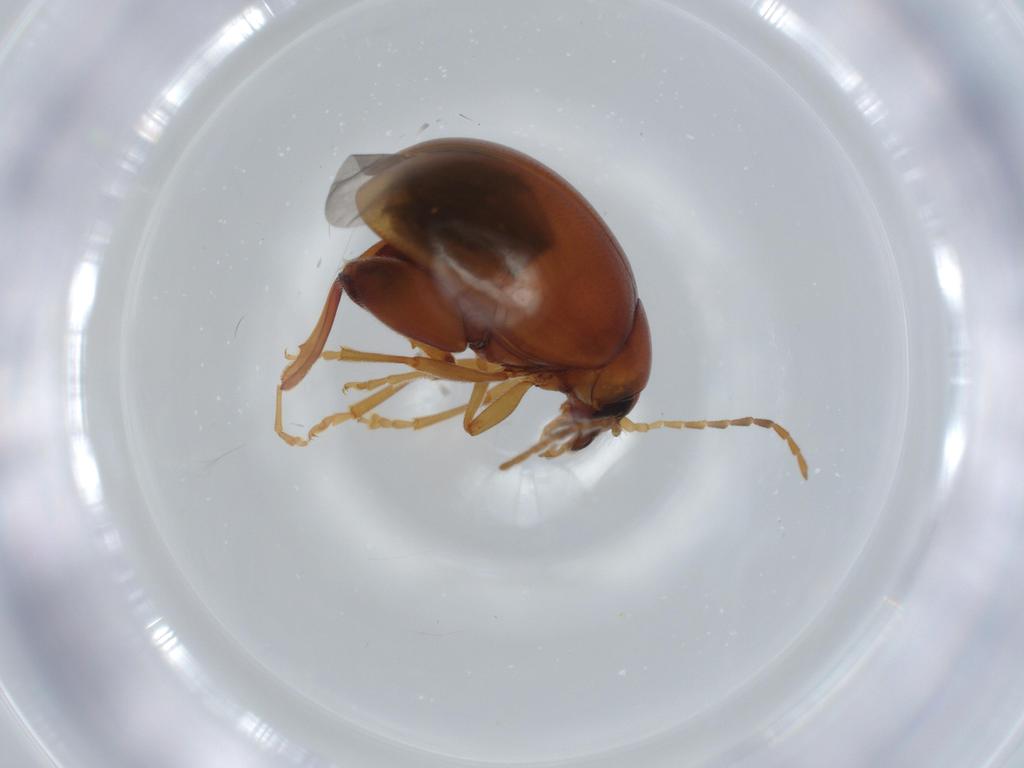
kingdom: Animalia
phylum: Arthropoda
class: Insecta
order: Coleoptera
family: Chrysomelidae
